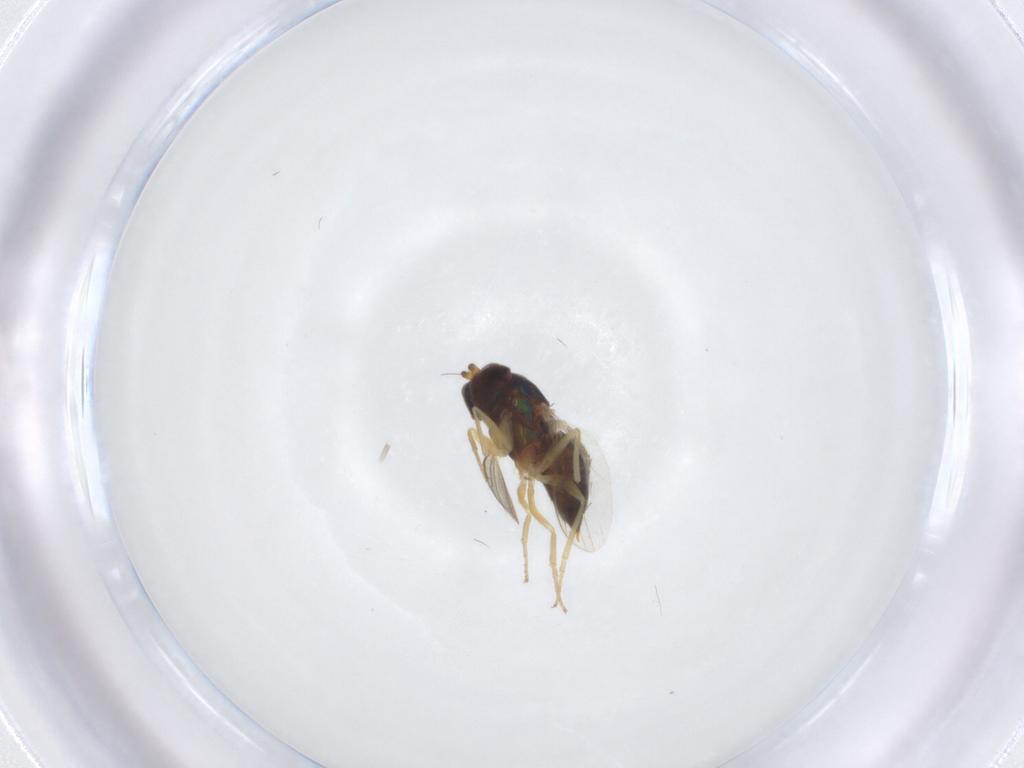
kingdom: Animalia
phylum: Arthropoda
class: Insecta
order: Diptera
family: Dolichopodidae
